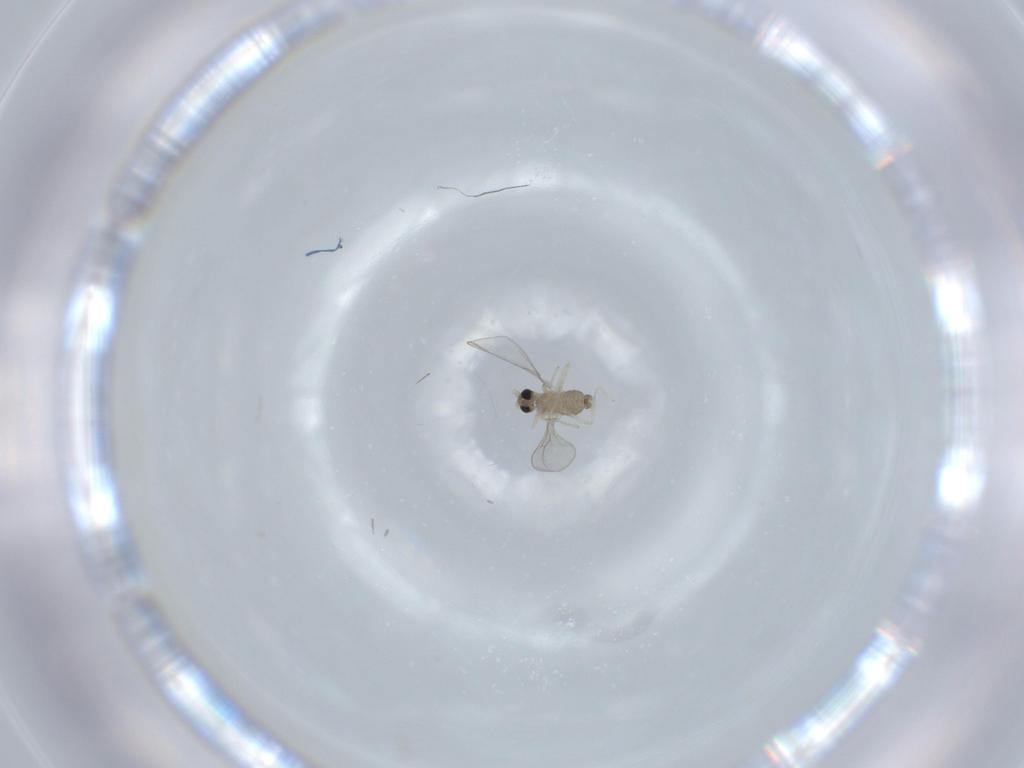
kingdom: Animalia
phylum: Arthropoda
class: Insecta
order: Diptera
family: Cecidomyiidae
